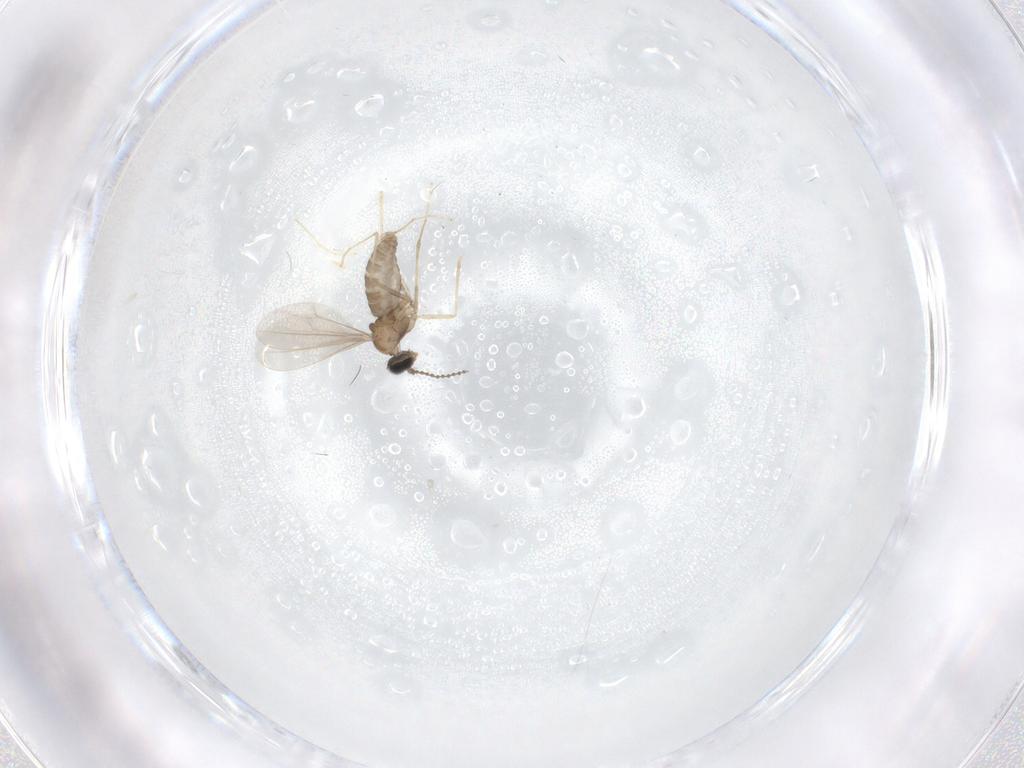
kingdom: Animalia
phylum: Arthropoda
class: Insecta
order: Diptera
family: Cecidomyiidae
